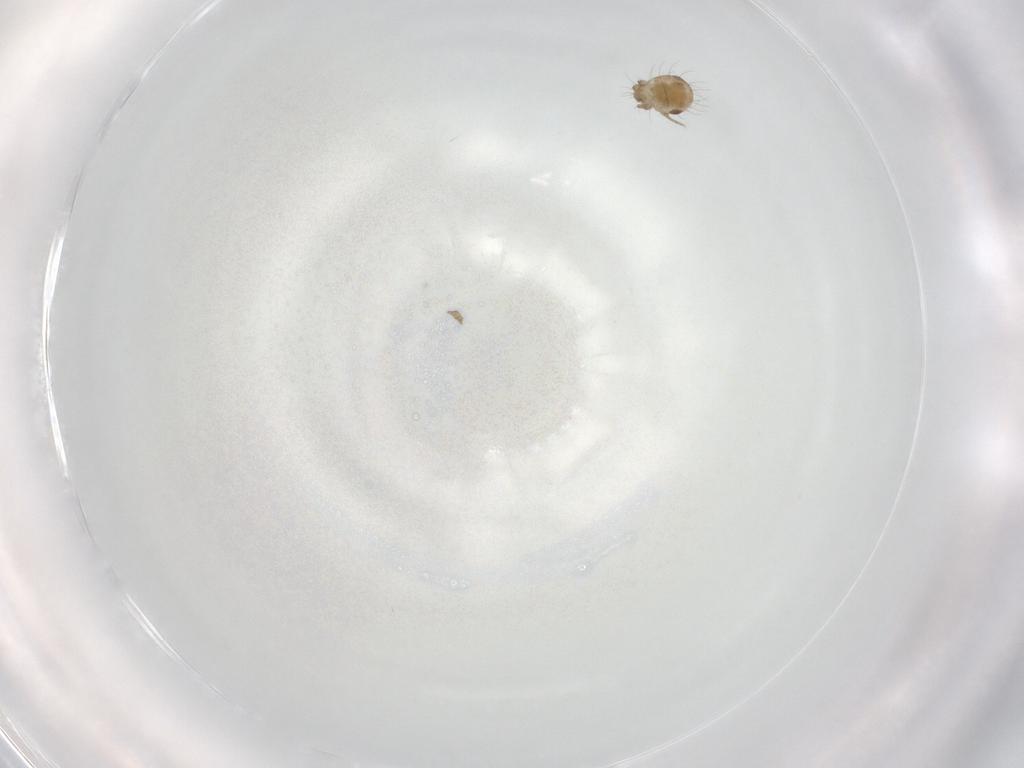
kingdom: Animalia
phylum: Arthropoda
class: Arachnida
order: Sarcoptiformes
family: Humerobatidae
